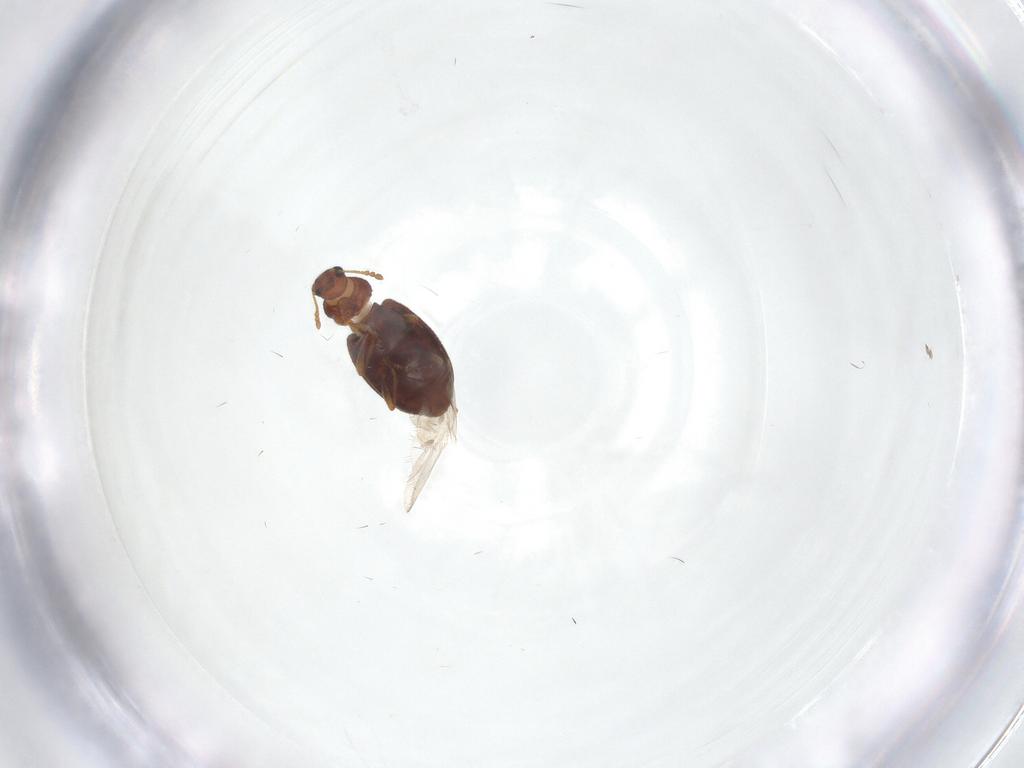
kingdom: Animalia
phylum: Arthropoda
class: Insecta
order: Coleoptera
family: Latridiidae
